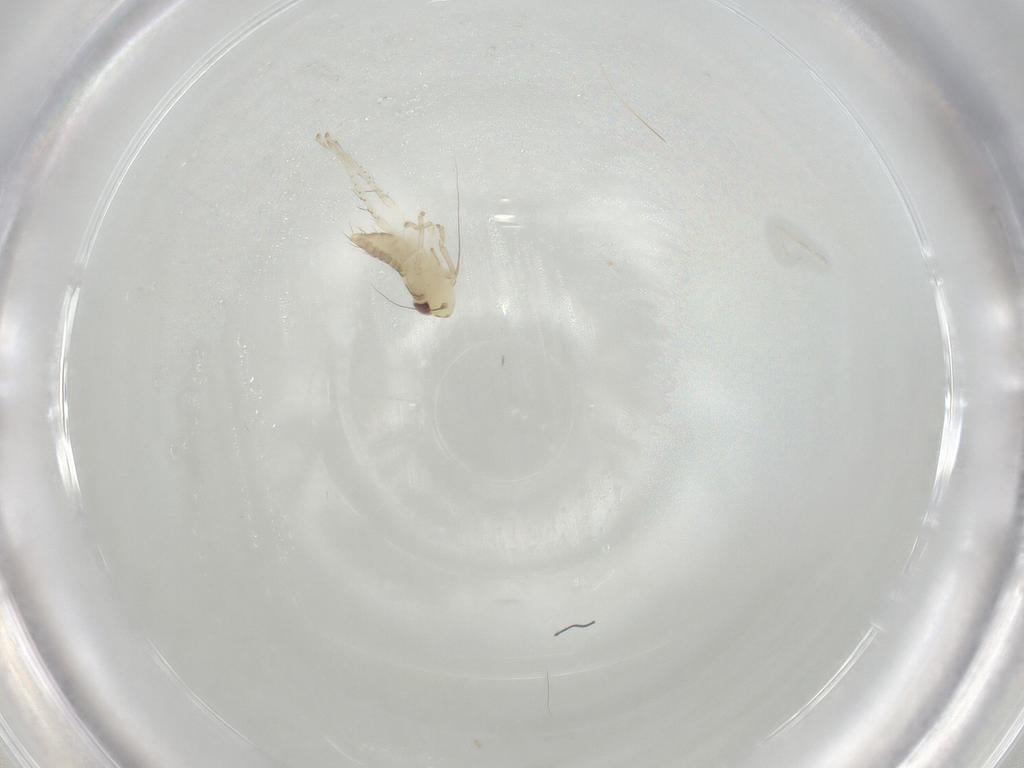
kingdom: Animalia
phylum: Arthropoda
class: Insecta
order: Hemiptera
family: Cicadellidae
